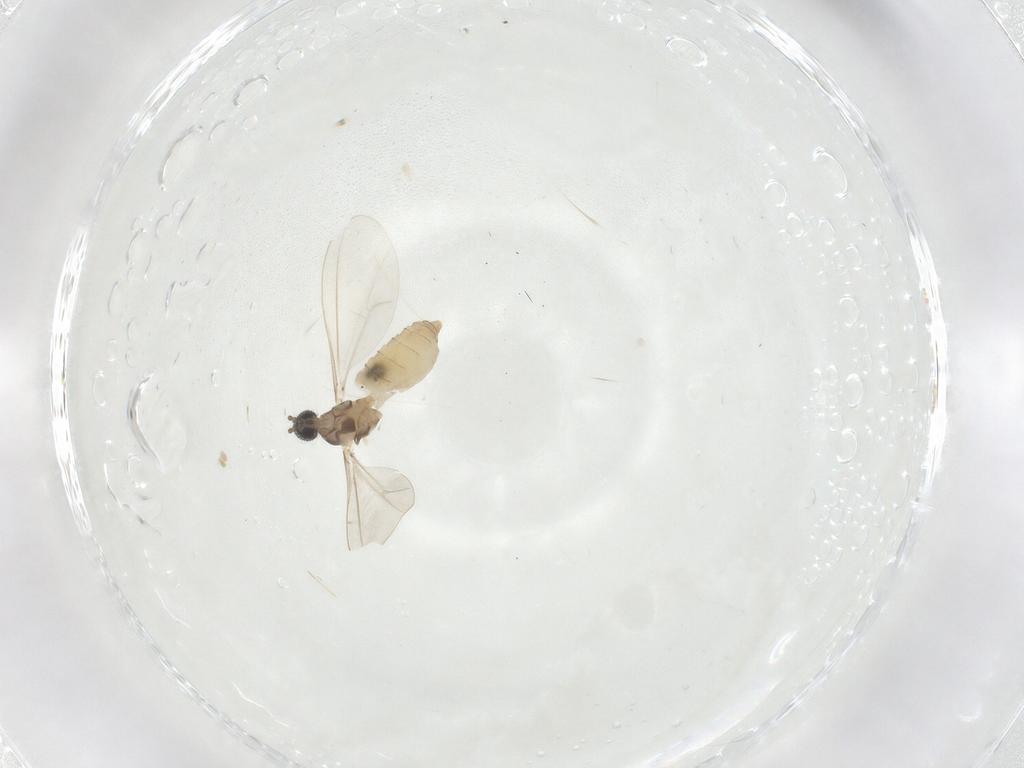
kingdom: Animalia
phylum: Arthropoda
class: Insecta
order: Diptera
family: Cecidomyiidae
